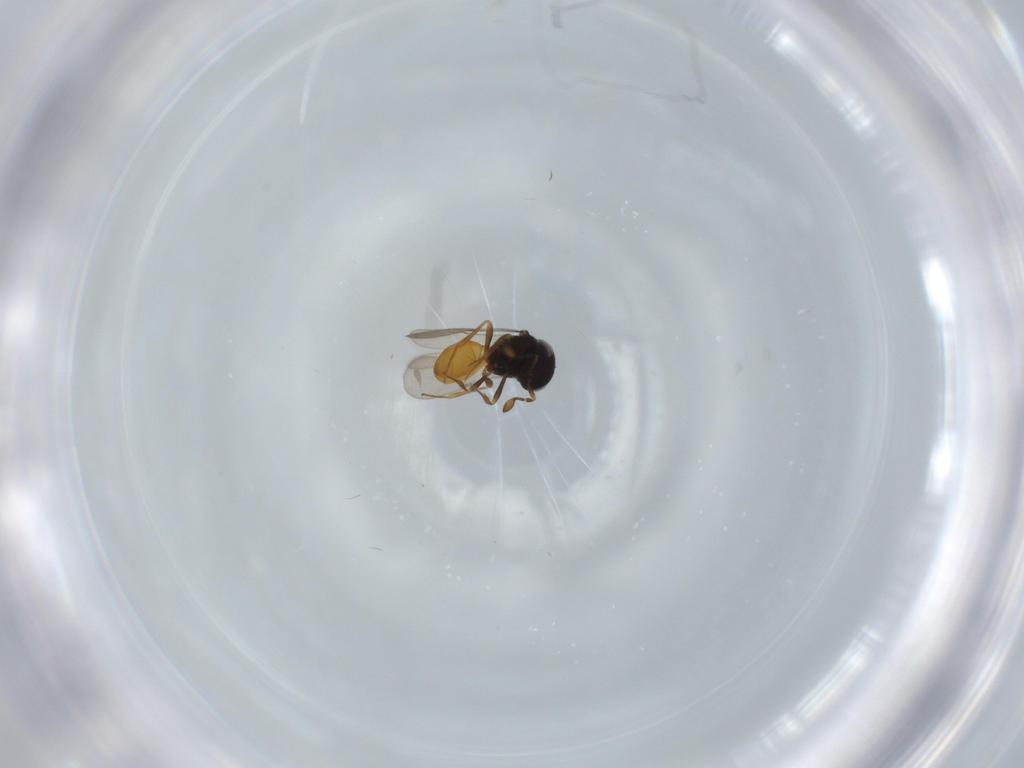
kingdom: Animalia
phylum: Arthropoda
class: Insecta
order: Hymenoptera
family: Scelionidae
